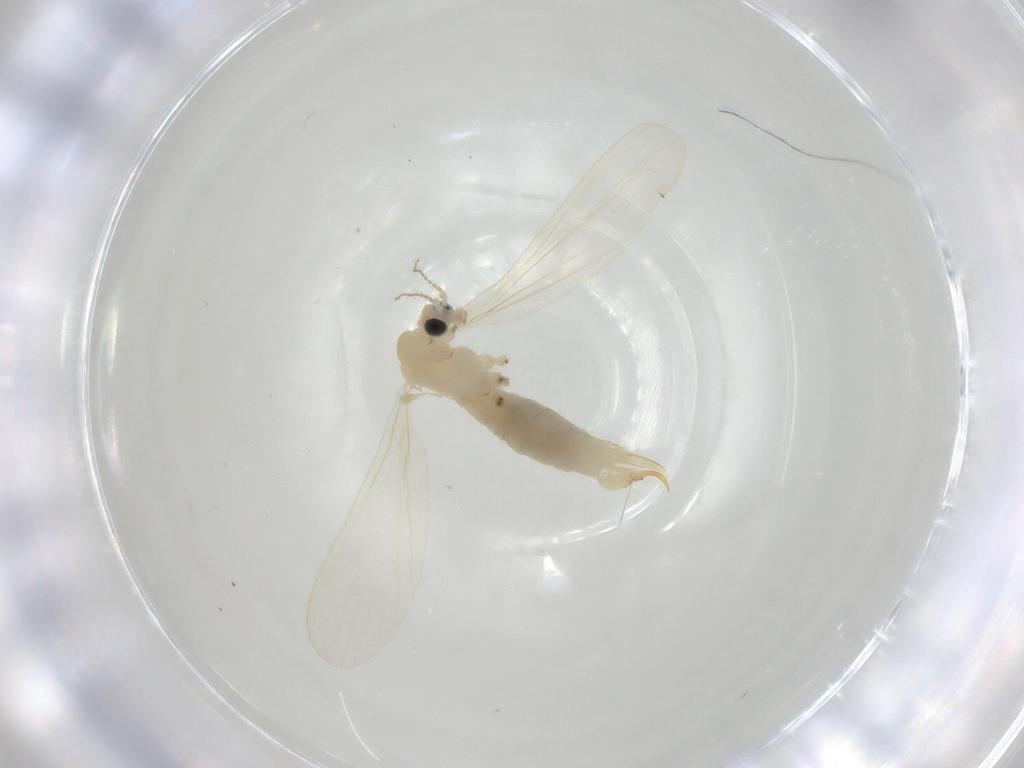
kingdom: Animalia
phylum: Arthropoda
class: Insecta
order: Diptera
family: Limoniidae
